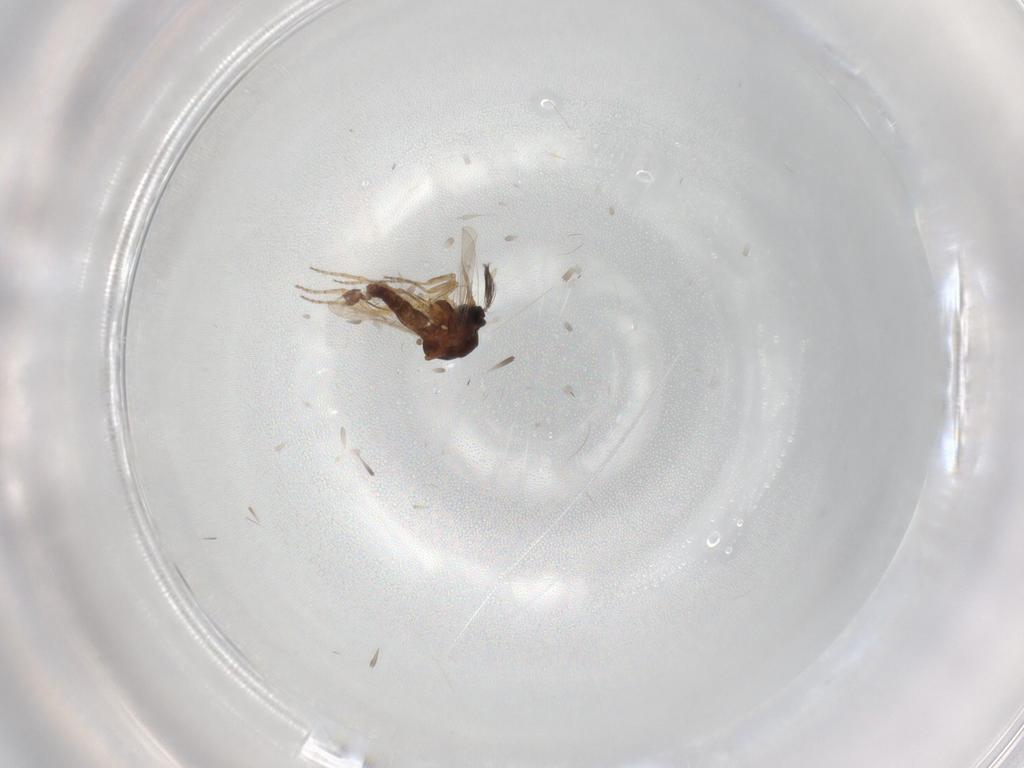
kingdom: Animalia
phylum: Arthropoda
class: Insecta
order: Diptera
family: Ceratopogonidae
